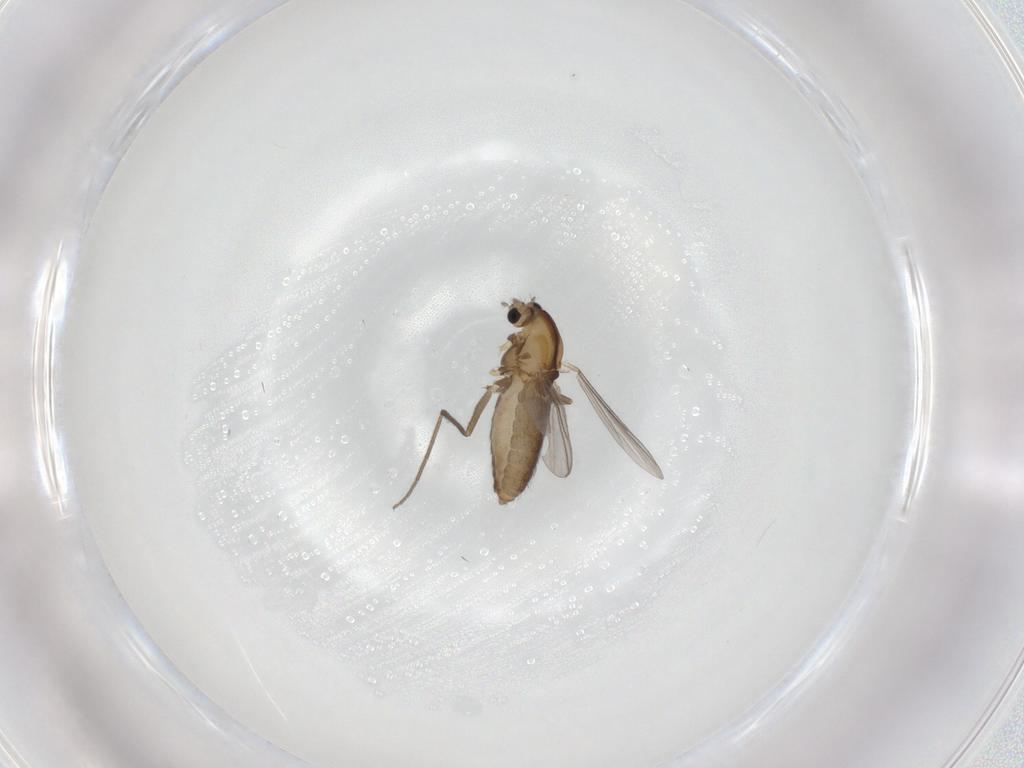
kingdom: Animalia
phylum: Arthropoda
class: Insecta
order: Diptera
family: Chironomidae
